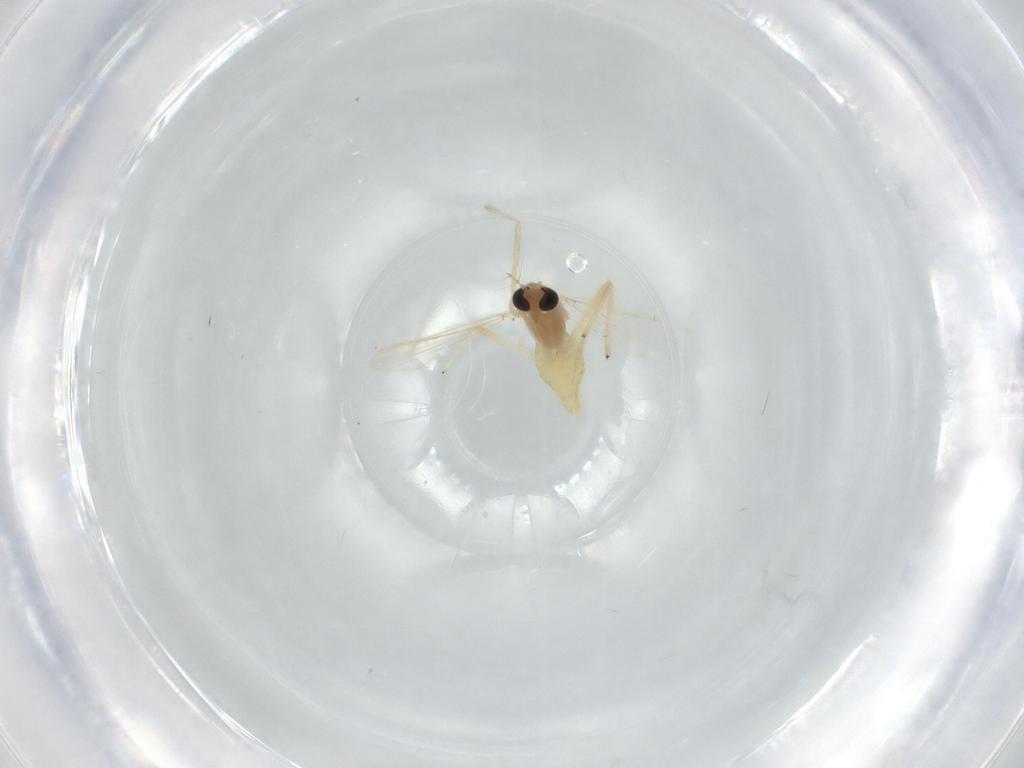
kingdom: Animalia
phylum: Arthropoda
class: Insecta
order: Diptera
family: Chironomidae
